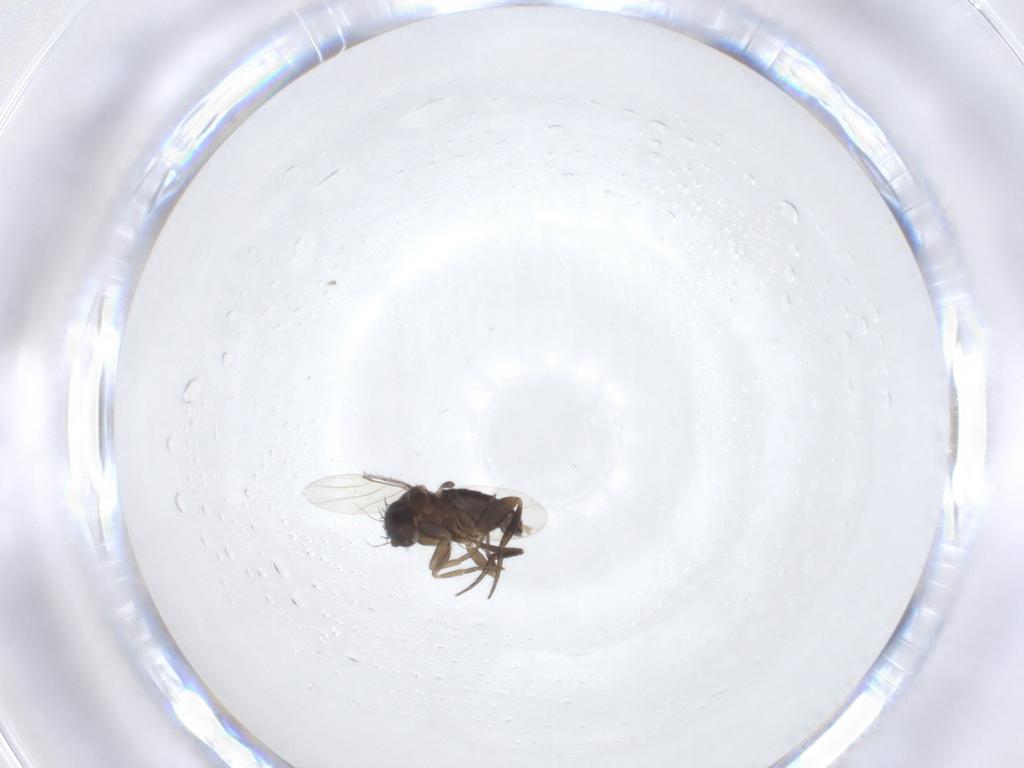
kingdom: Animalia
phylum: Arthropoda
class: Insecta
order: Diptera
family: Phoridae
